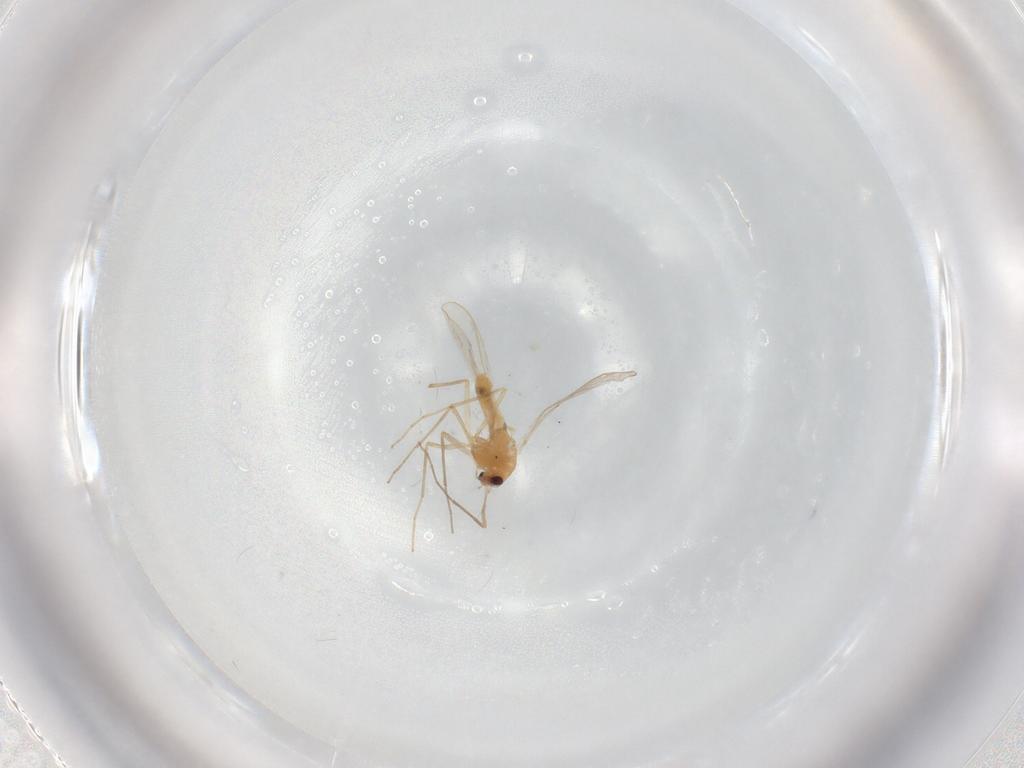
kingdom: Animalia
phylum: Arthropoda
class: Insecta
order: Diptera
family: Chironomidae
